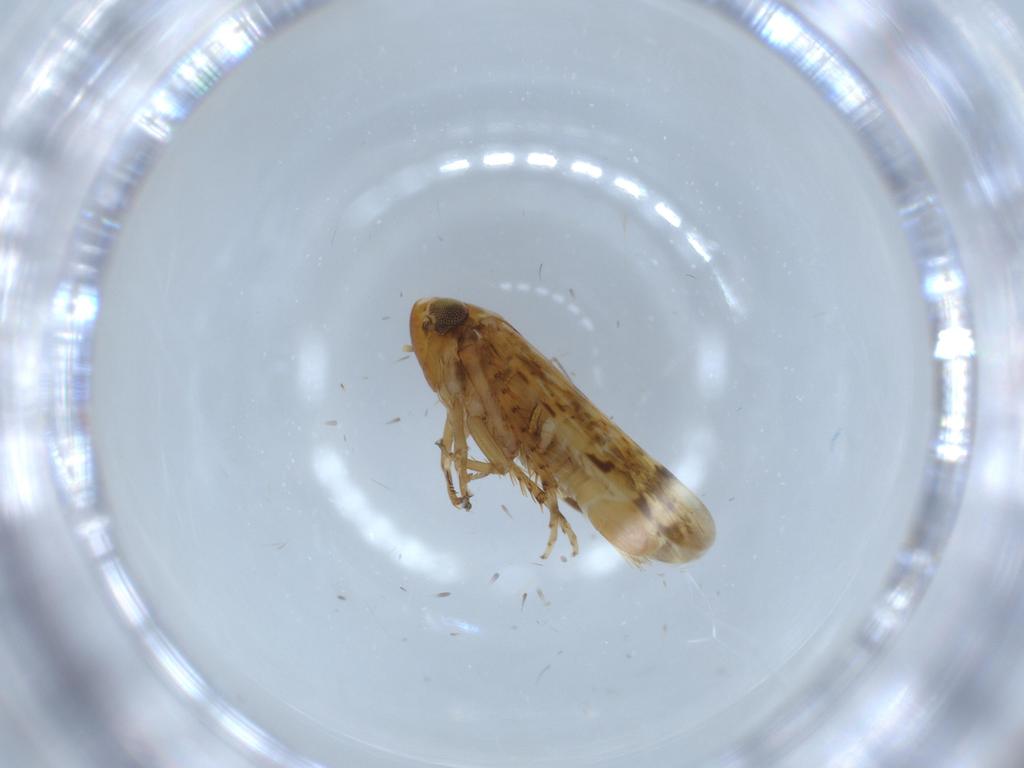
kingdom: Animalia
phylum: Arthropoda
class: Insecta
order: Hemiptera
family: Cicadellidae
